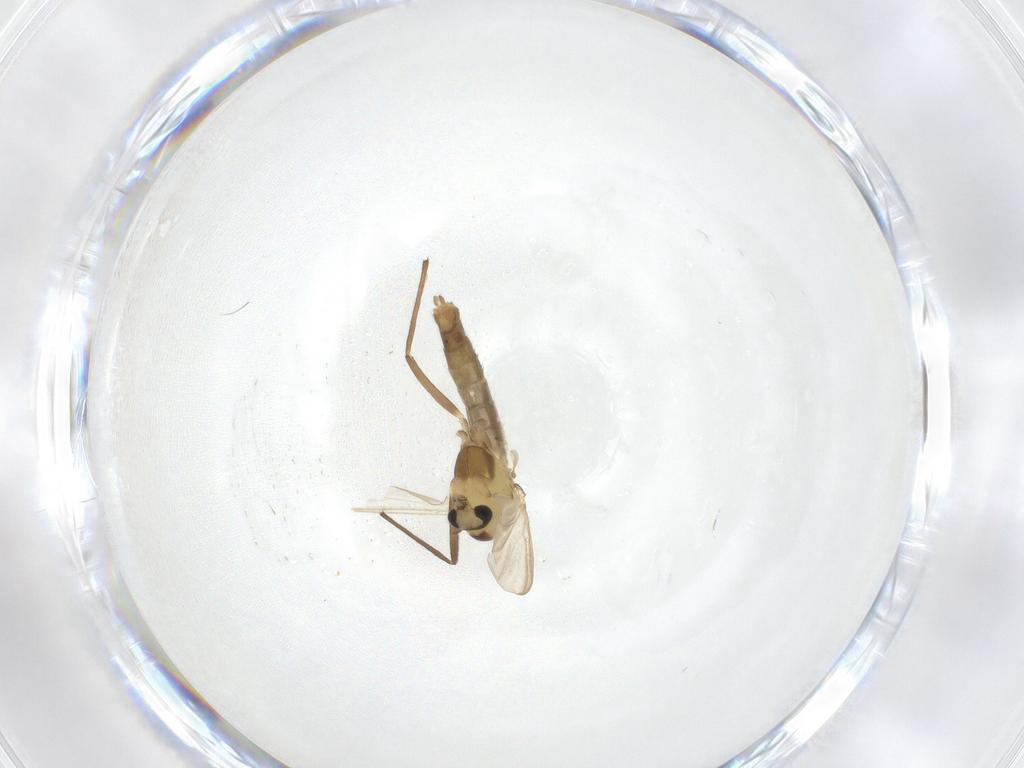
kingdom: Animalia
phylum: Arthropoda
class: Insecta
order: Diptera
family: Chironomidae
